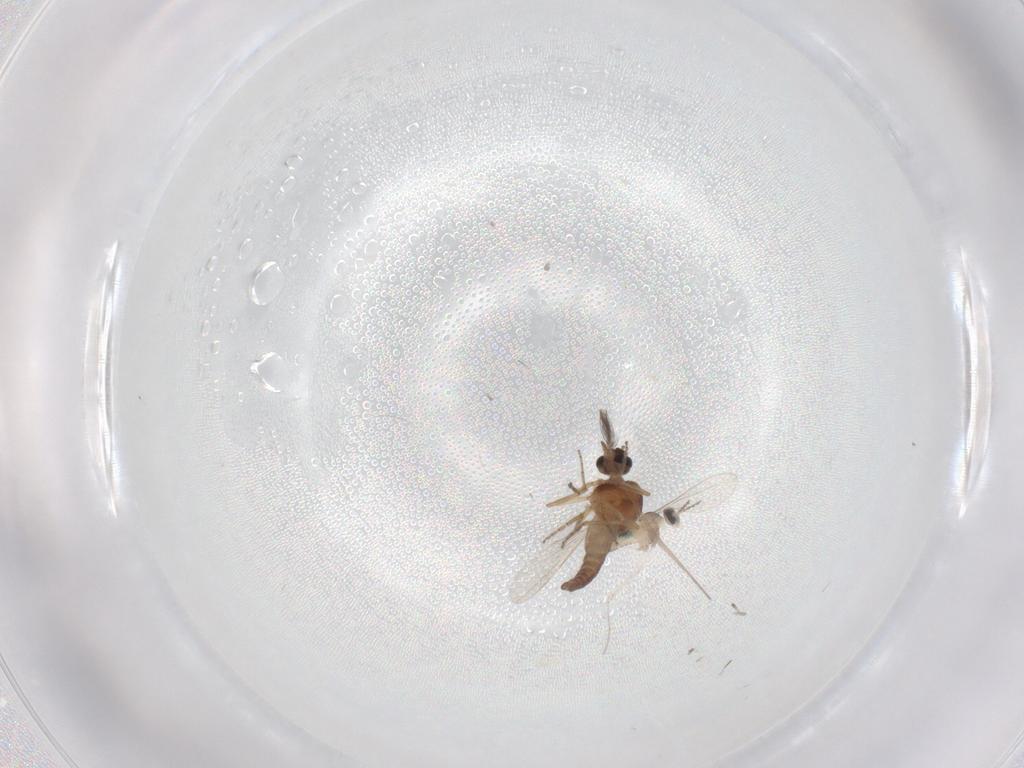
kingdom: Animalia
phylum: Arthropoda
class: Insecta
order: Diptera
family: Ceratopogonidae
